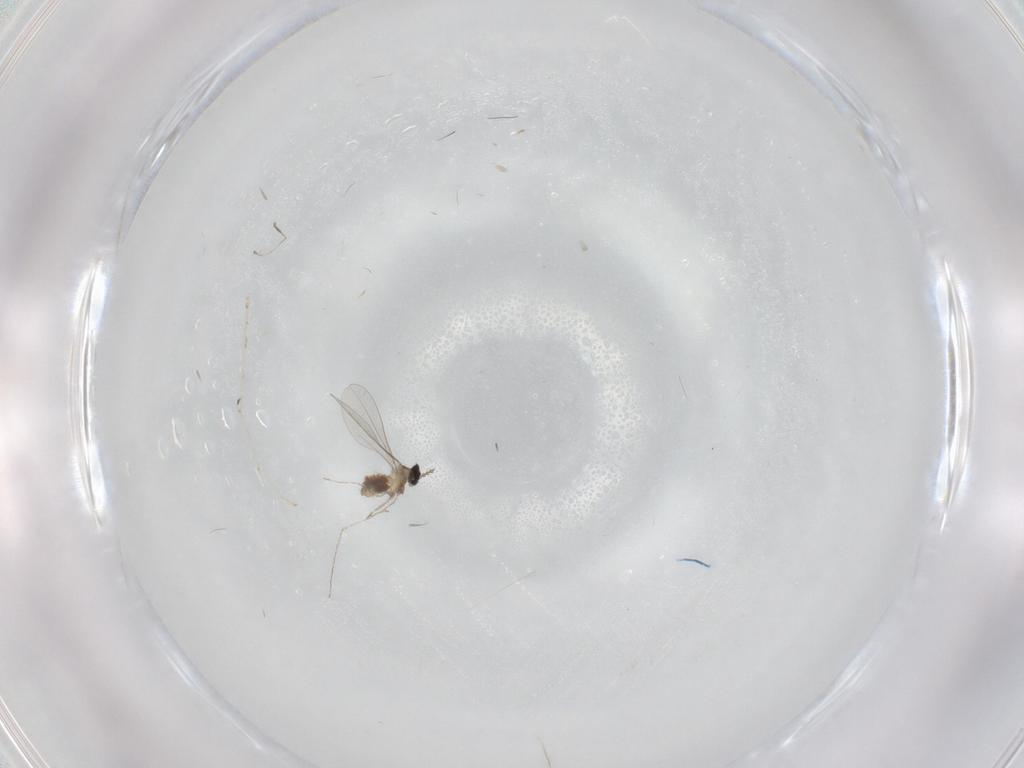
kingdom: Animalia
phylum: Arthropoda
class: Insecta
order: Diptera
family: Cecidomyiidae
